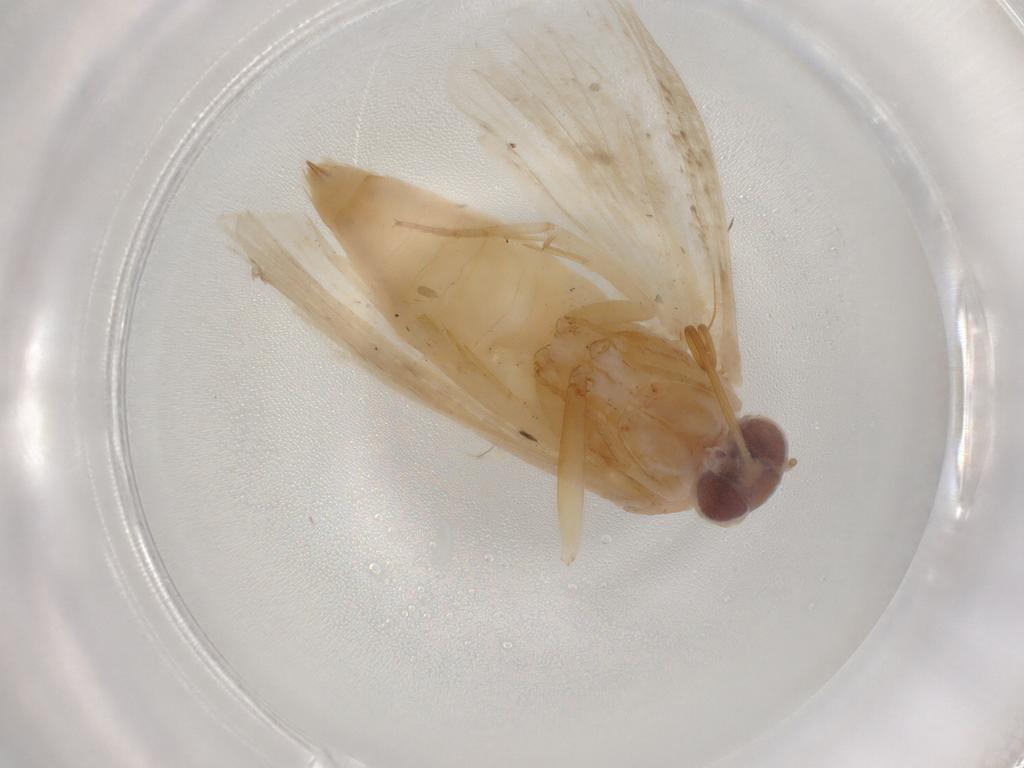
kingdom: Animalia
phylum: Arthropoda
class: Insecta
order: Lepidoptera
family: Noctuidae
